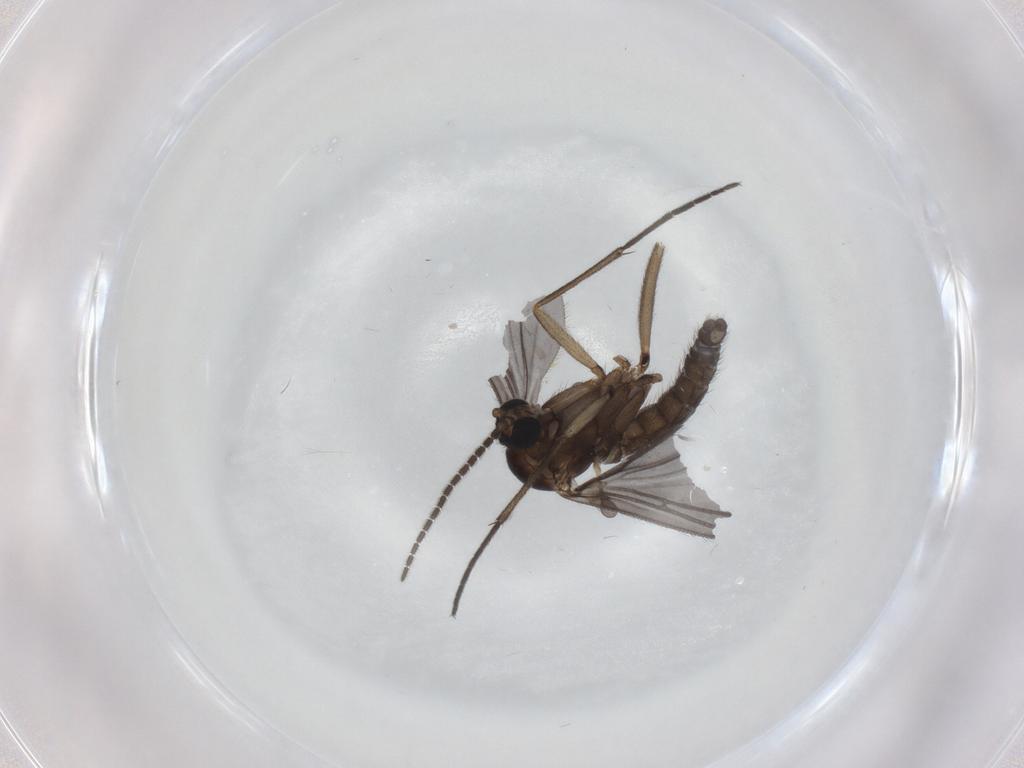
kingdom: Animalia
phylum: Arthropoda
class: Insecta
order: Diptera
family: Sciaridae
